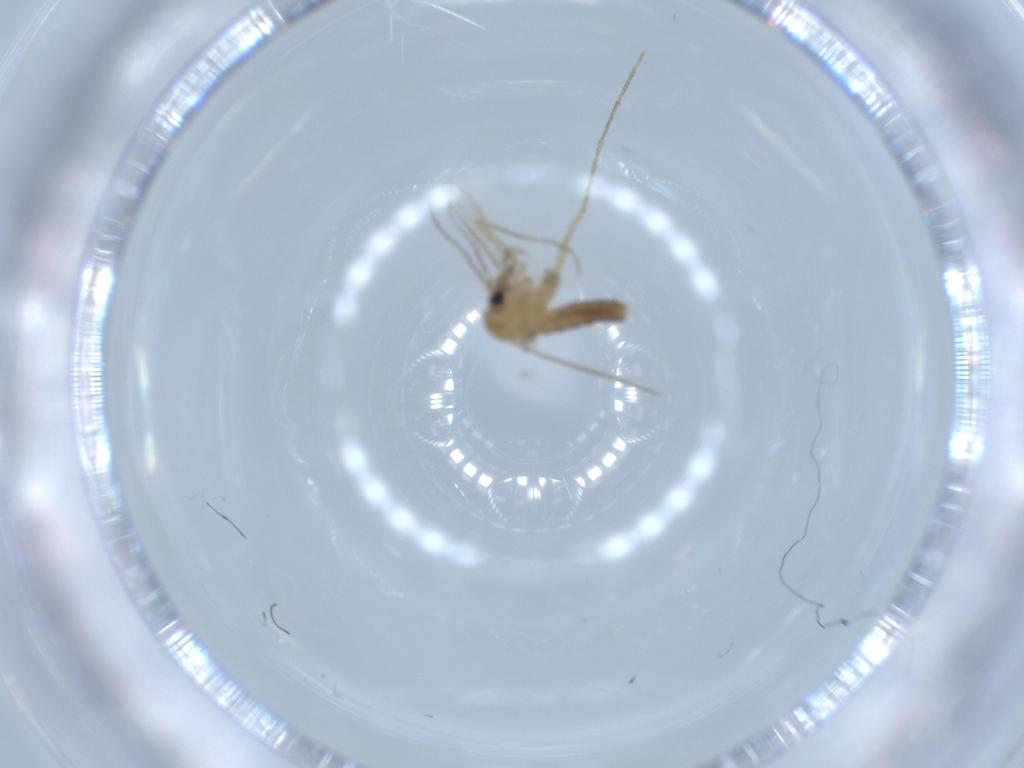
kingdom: Animalia
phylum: Arthropoda
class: Insecta
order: Diptera
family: Psychodidae
